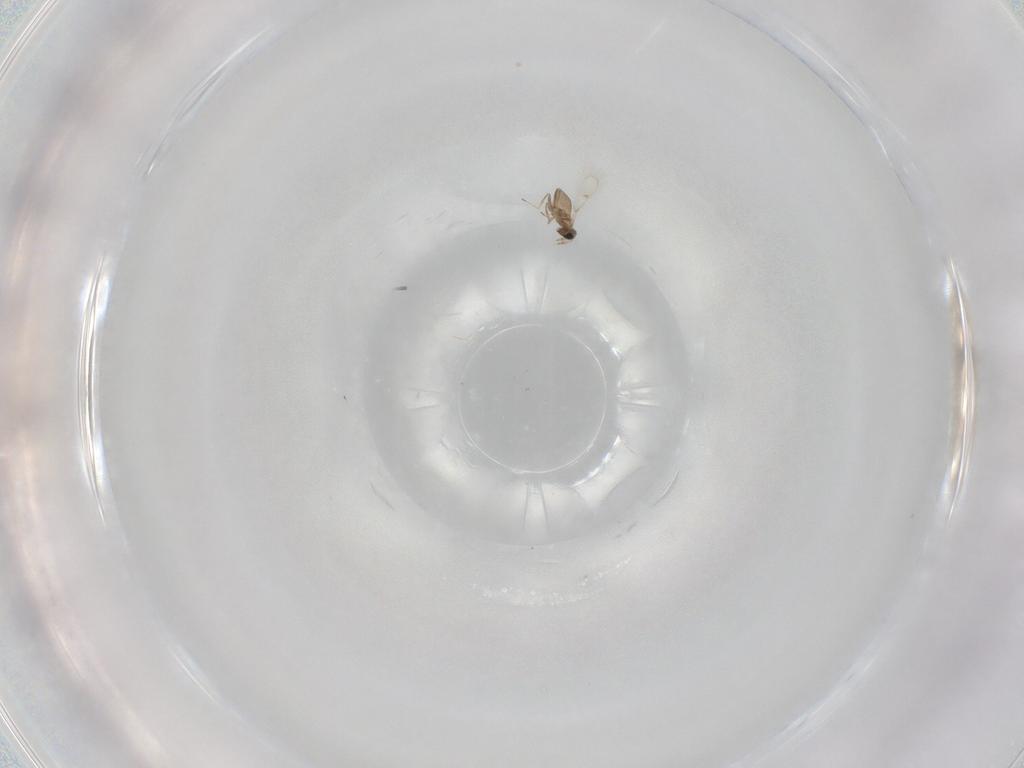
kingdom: Animalia
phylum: Arthropoda
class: Insecta
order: Hymenoptera
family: Trichogrammatidae
